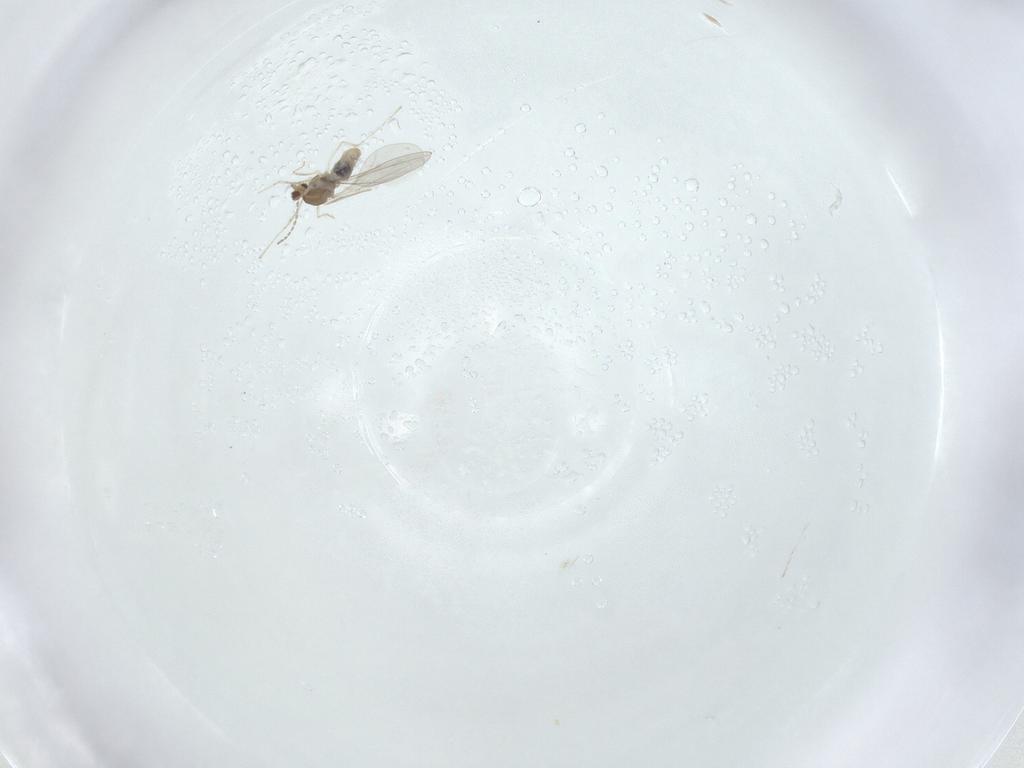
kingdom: Animalia
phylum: Arthropoda
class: Insecta
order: Diptera
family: Cecidomyiidae
